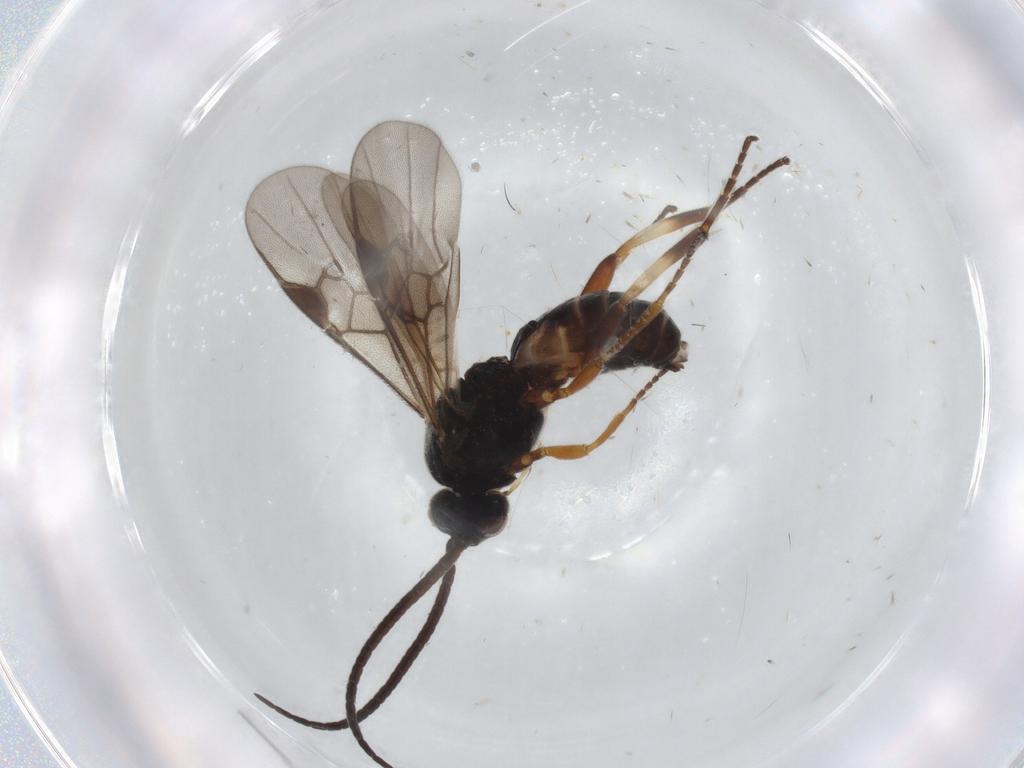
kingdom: Animalia
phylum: Arthropoda
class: Insecta
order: Hymenoptera
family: Braconidae
